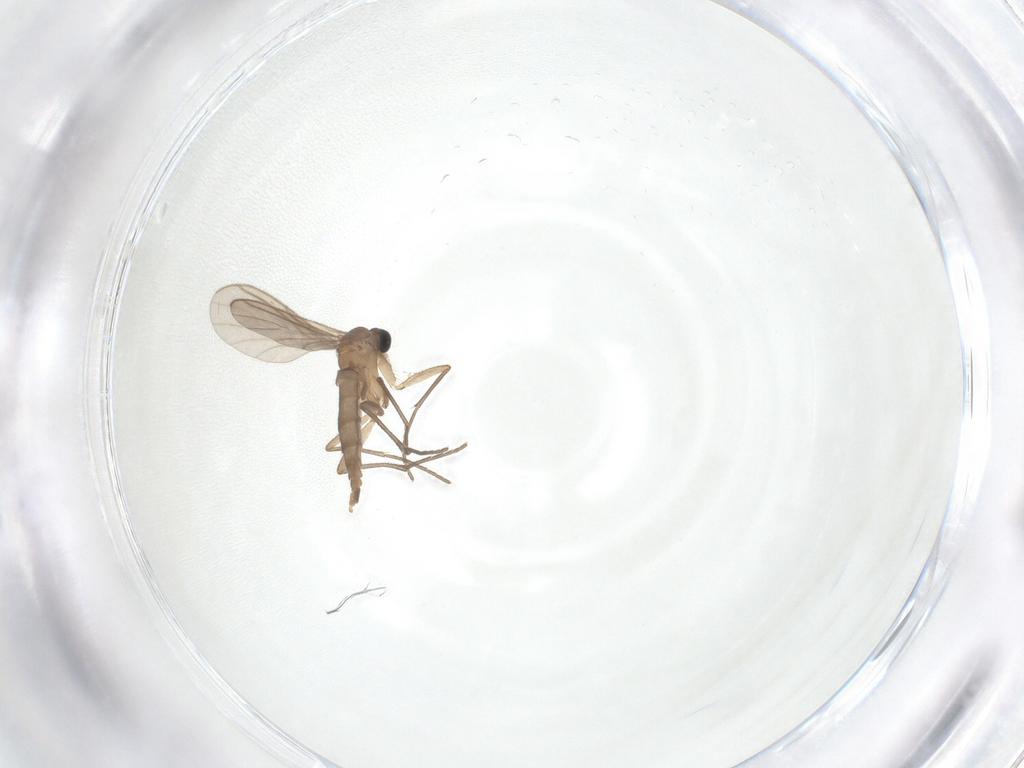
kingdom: Animalia
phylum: Arthropoda
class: Insecta
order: Diptera
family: Sciaridae
